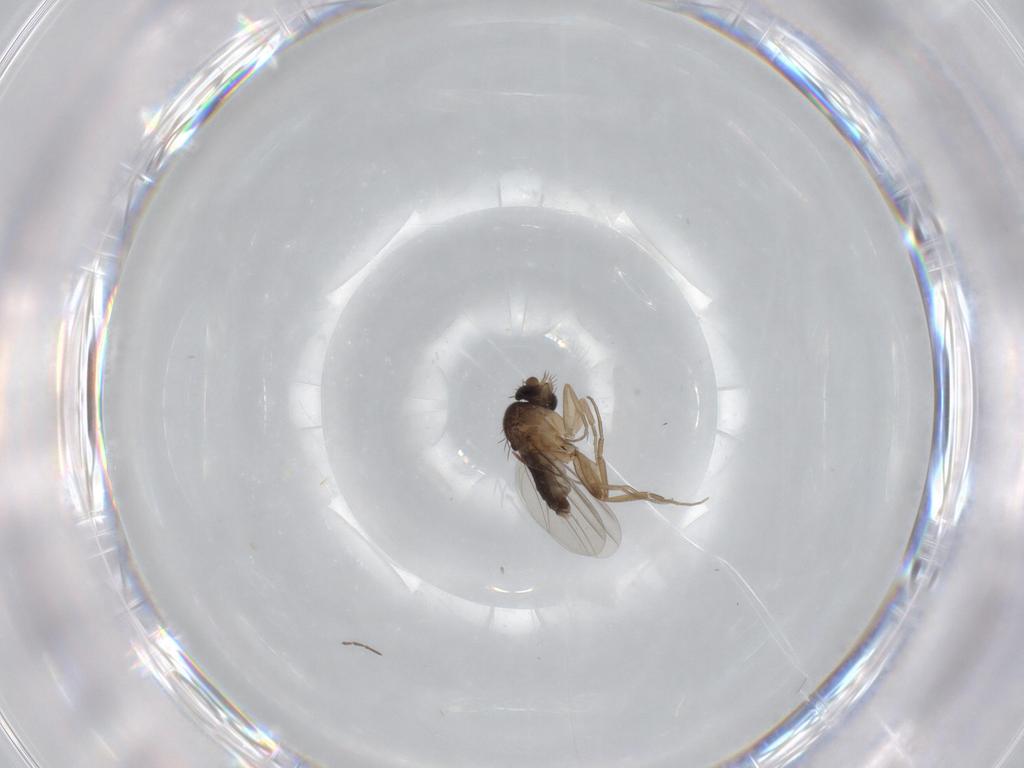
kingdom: Animalia
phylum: Arthropoda
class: Insecta
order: Diptera
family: Phoridae
